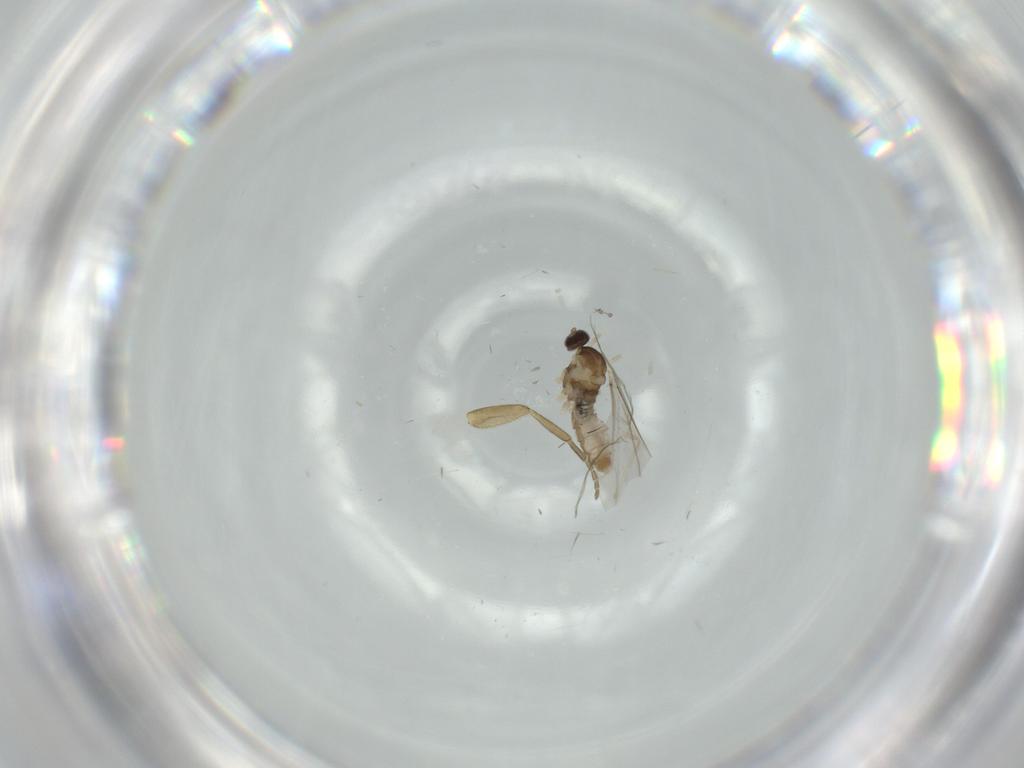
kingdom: Animalia
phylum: Arthropoda
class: Insecta
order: Diptera
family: Cecidomyiidae
